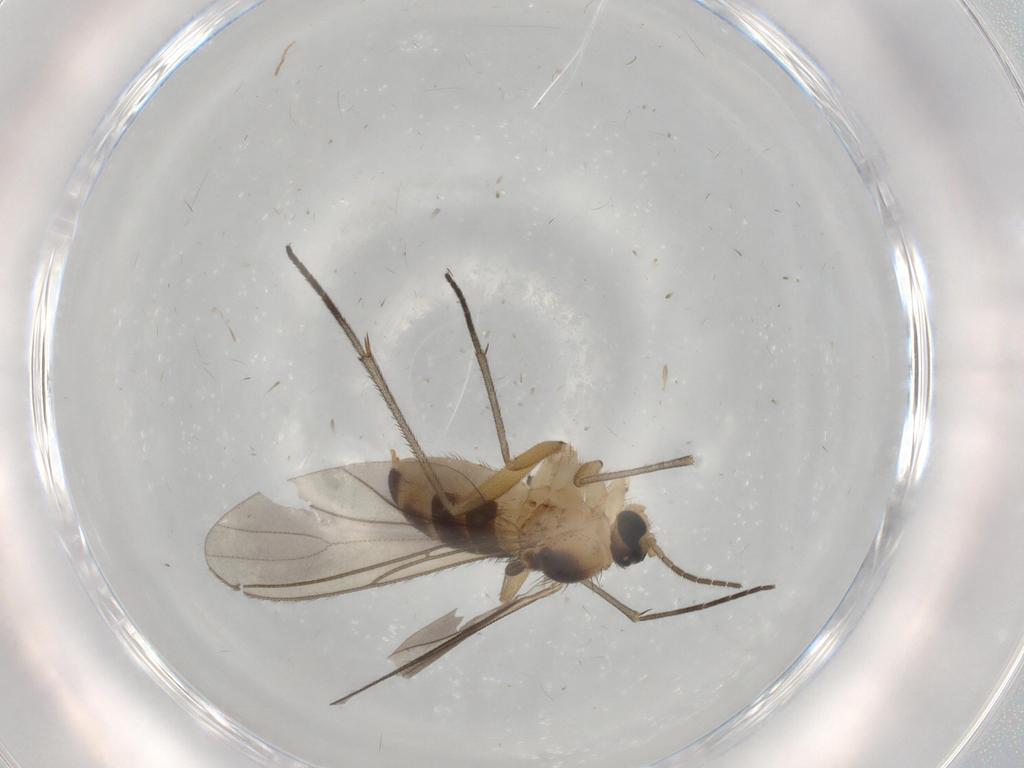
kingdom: Animalia
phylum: Arthropoda
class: Insecta
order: Diptera
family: Sciaridae
